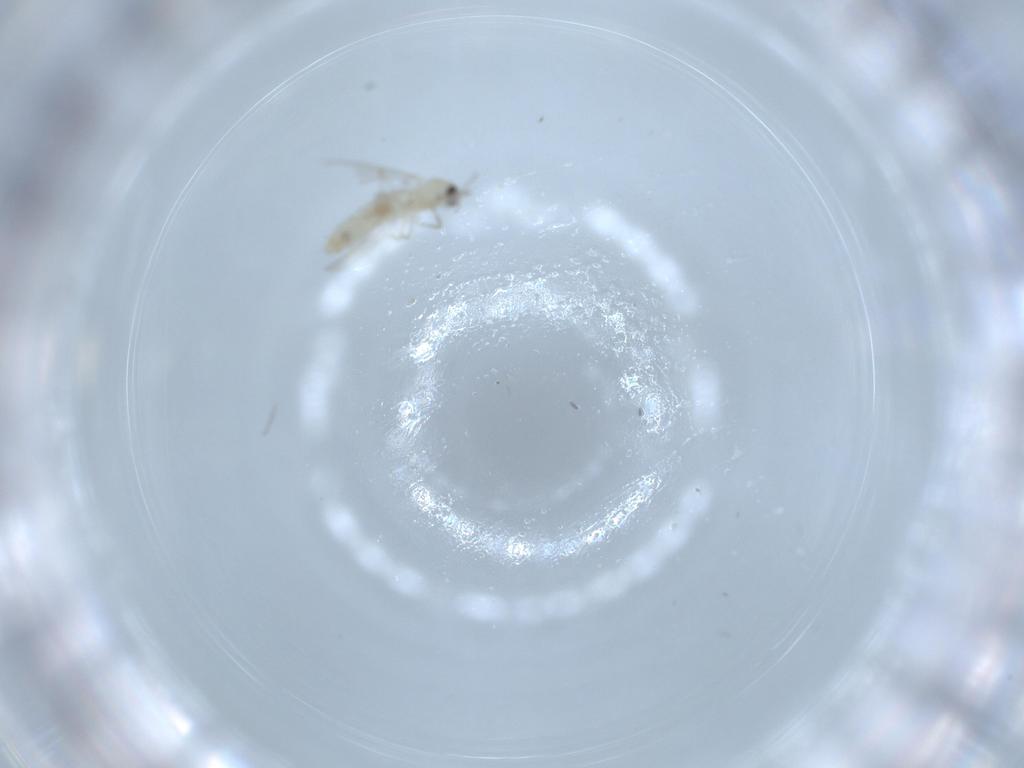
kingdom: Animalia
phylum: Arthropoda
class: Insecta
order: Diptera
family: Chironomidae
